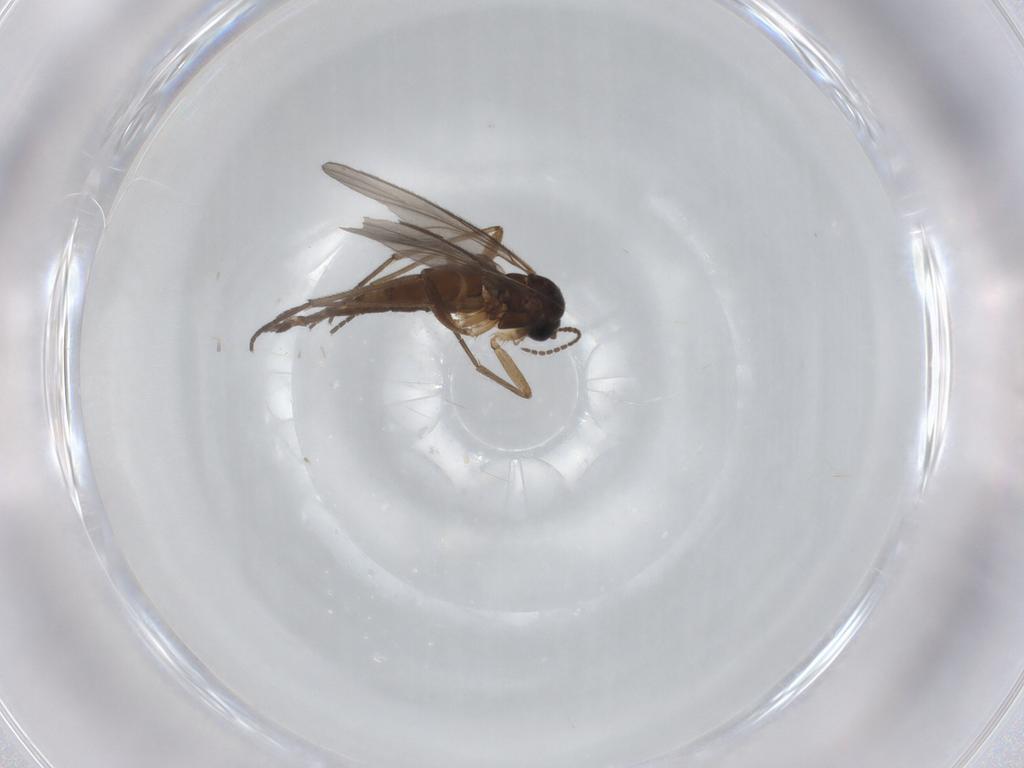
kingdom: Animalia
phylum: Arthropoda
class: Insecta
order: Diptera
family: Sciaridae
